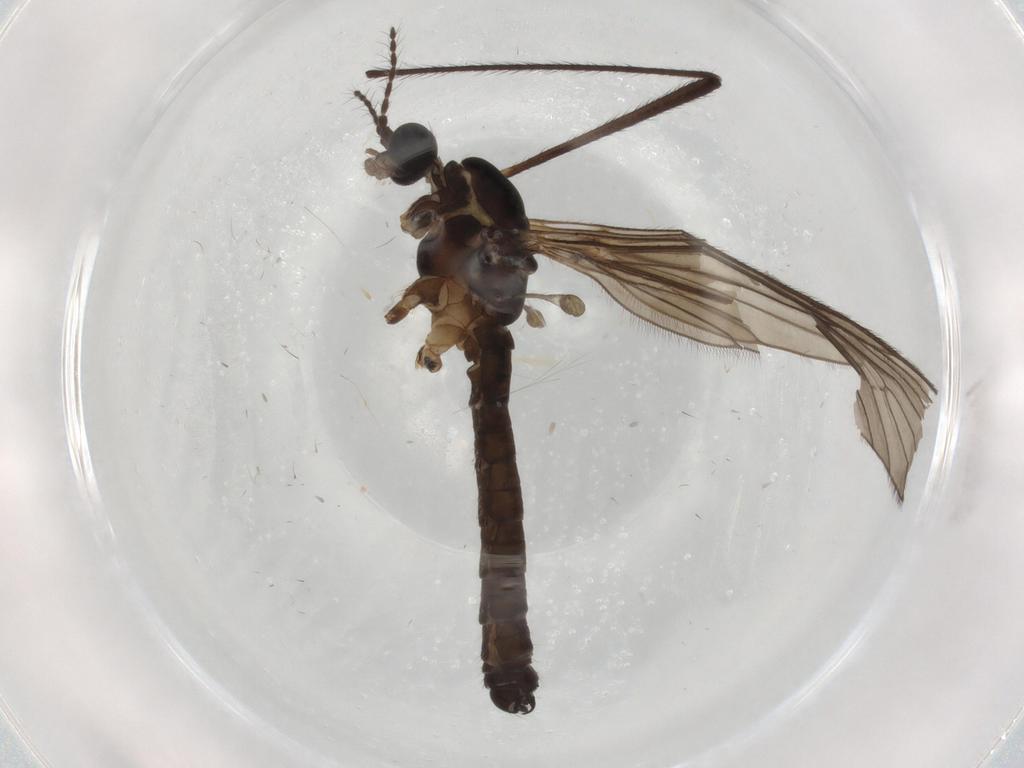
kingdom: Animalia
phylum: Arthropoda
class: Insecta
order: Diptera
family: Limoniidae
